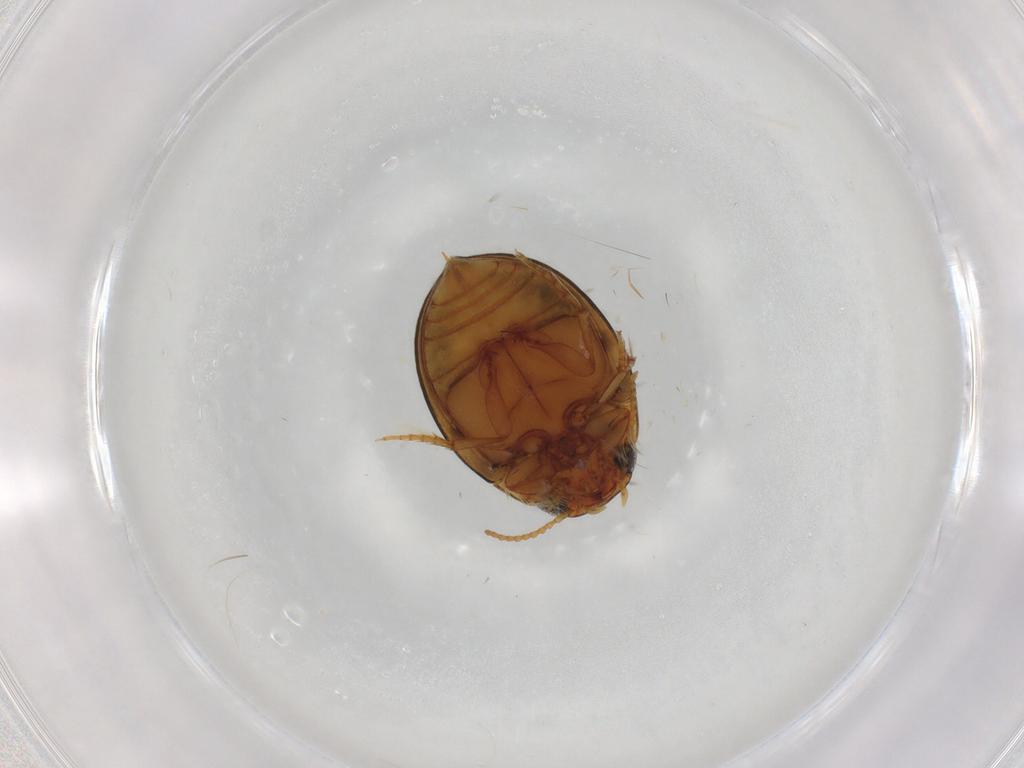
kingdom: Animalia
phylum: Arthropoda
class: Insecta
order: Coleoptera
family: Dytiscidae
